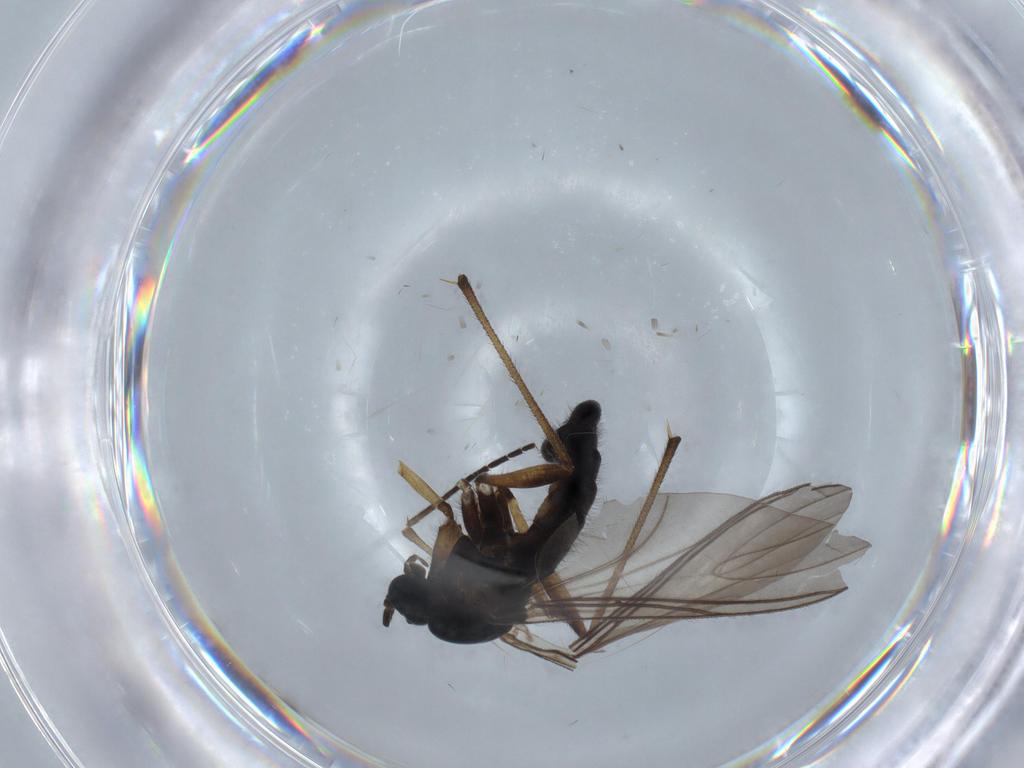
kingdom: Animalia
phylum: Arthropoda
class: Insecta
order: Diptera
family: Sciaridae
